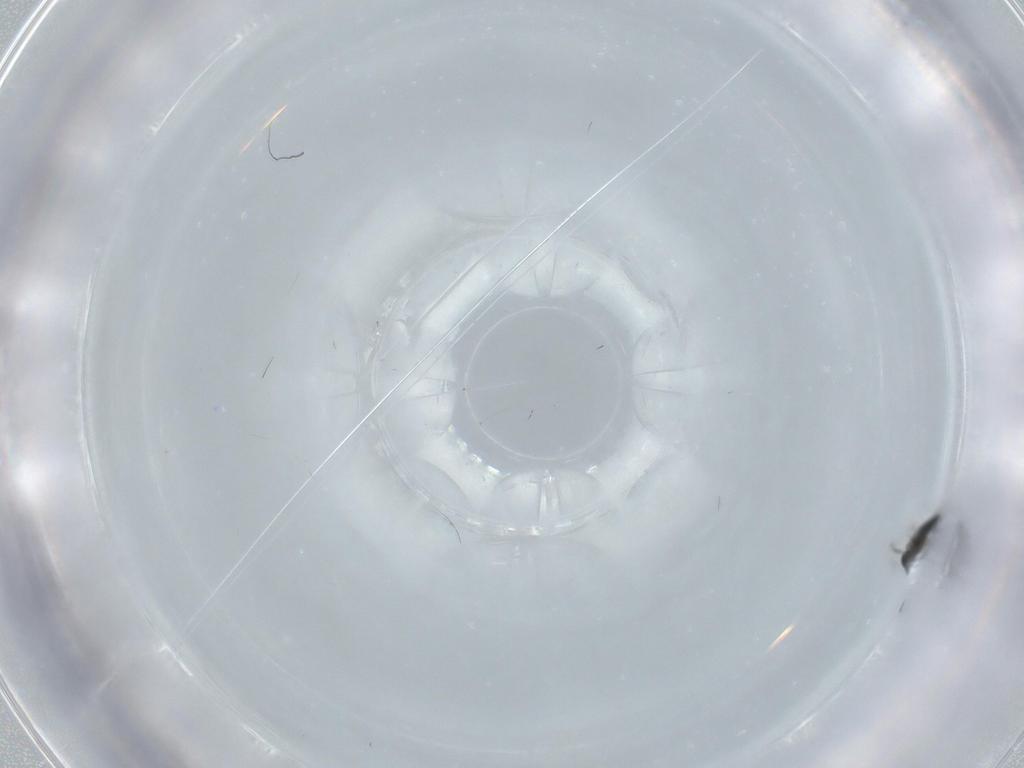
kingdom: Animalia
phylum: Arthropoda
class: Insecta
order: Hymenoptera
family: Scelionidae
